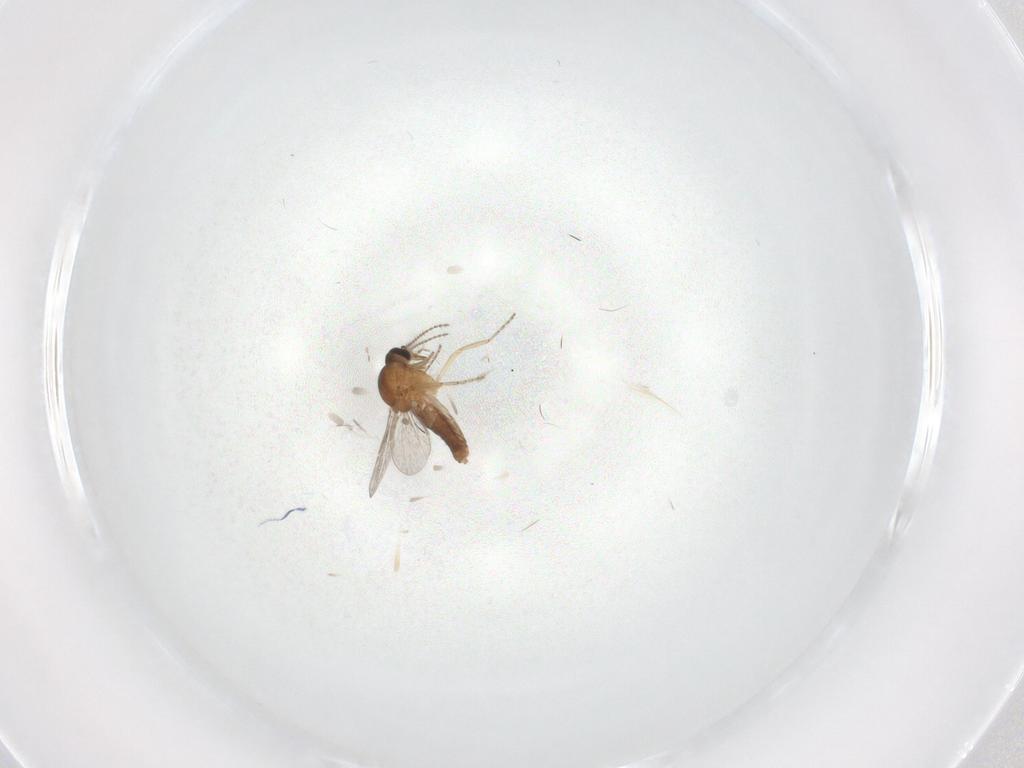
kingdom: Animalia
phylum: Arthropoda
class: Insecta
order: Diptera
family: Ceratopogonidae
